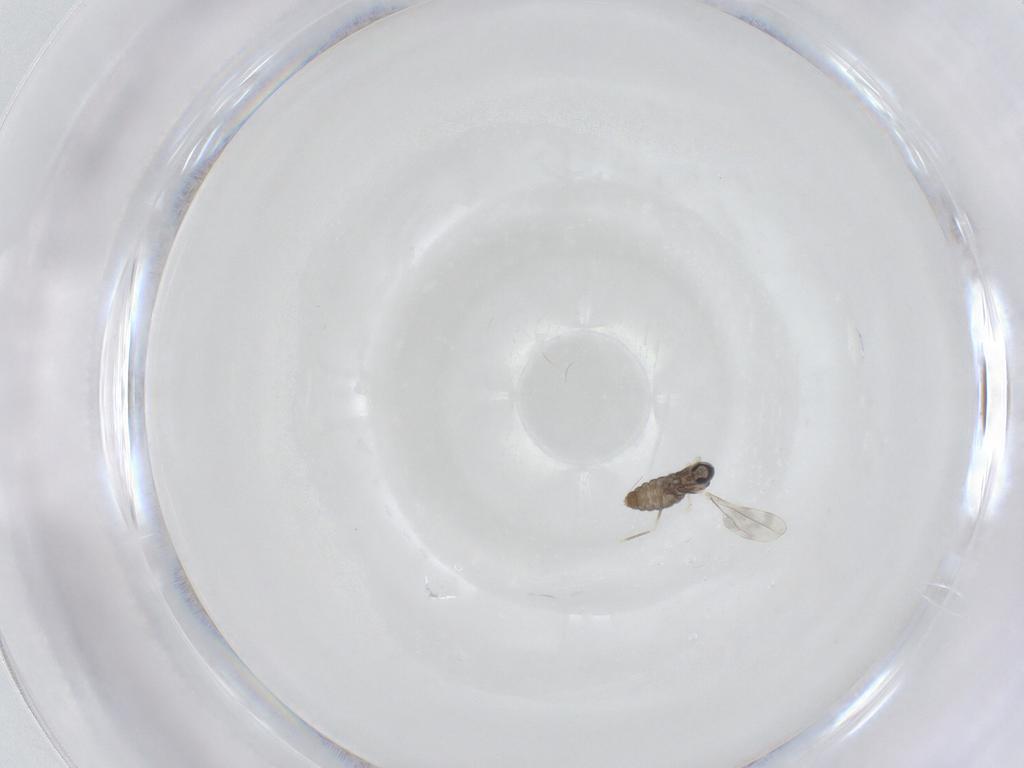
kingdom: Animalia
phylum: Arthropoda
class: Insecta
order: Diptera
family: Cecidomyiidae
